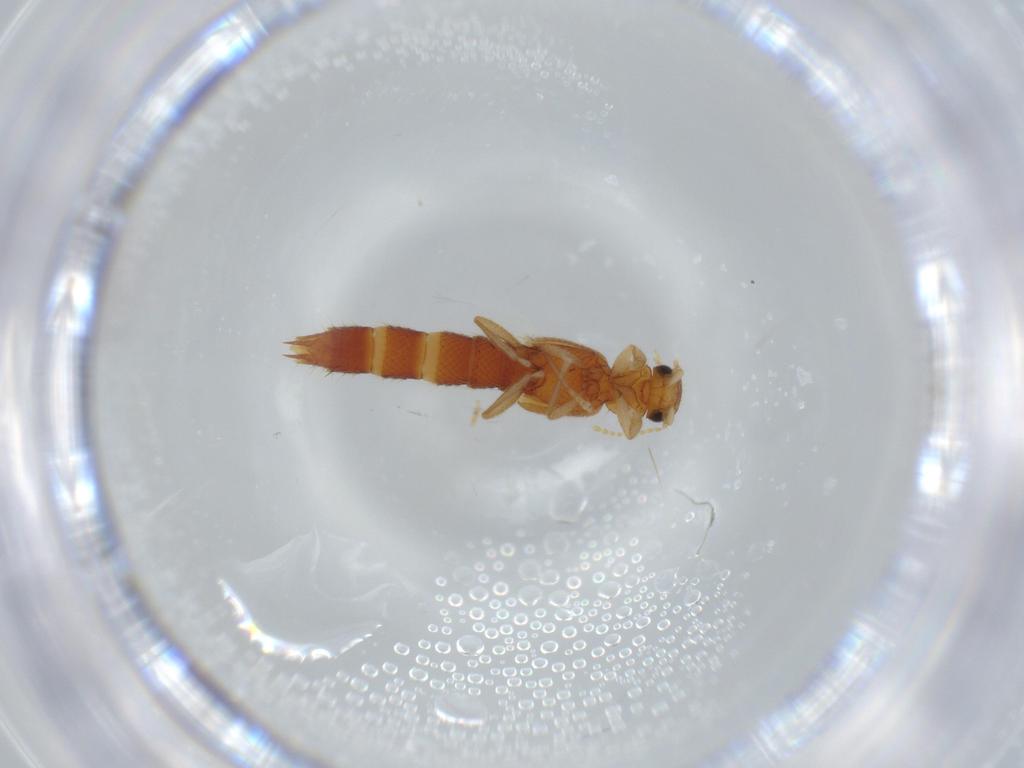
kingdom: Animalia
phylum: Arthropoda
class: Insecta
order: Coleoptera
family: Staphylinidae
